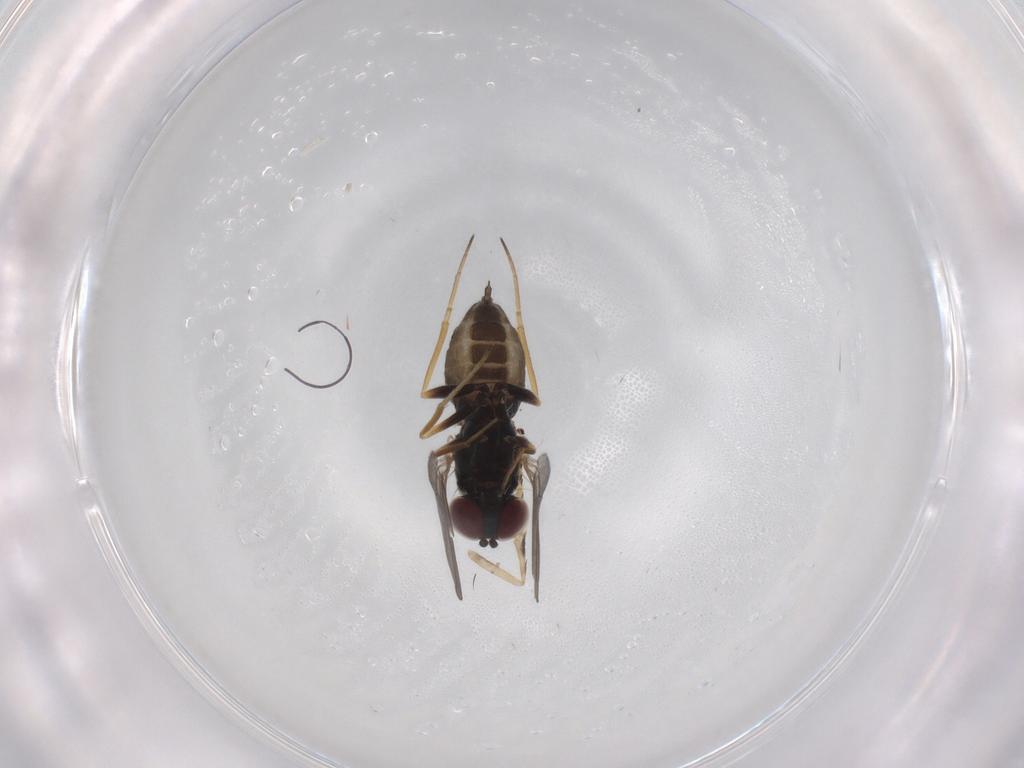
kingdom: Animalia
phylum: Arthropoda
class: Insecta
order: Diptera
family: Dolichopodidae
